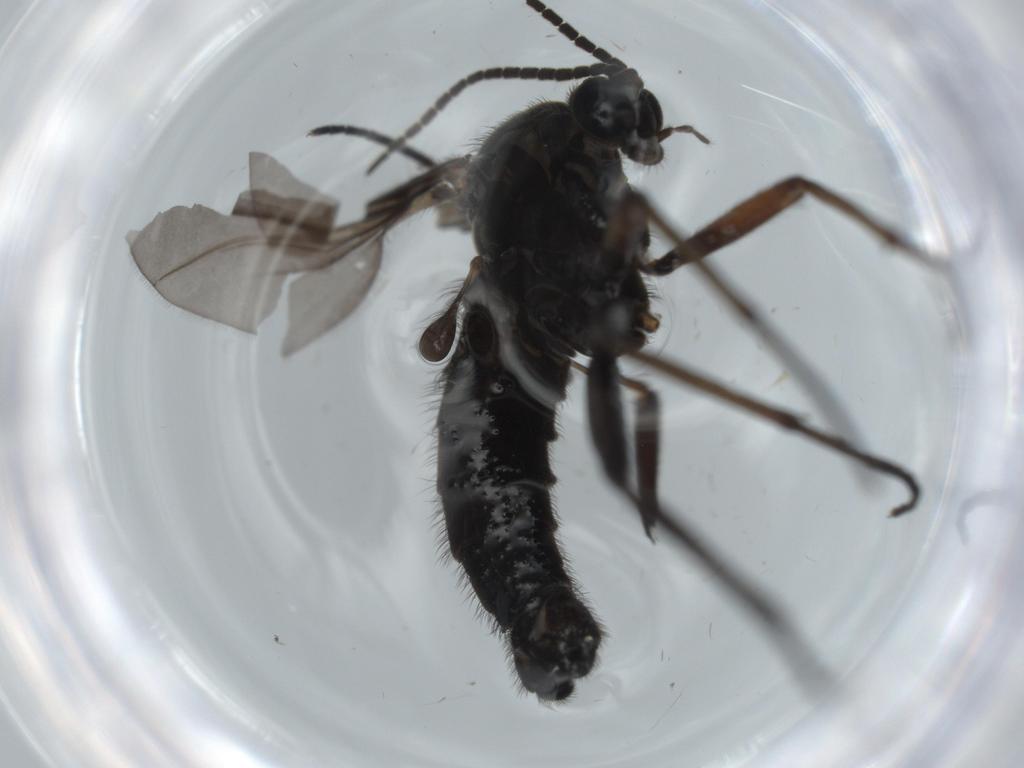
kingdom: Animalia
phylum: Arthropoda
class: Insecta
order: Diptera
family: Sciaridae
